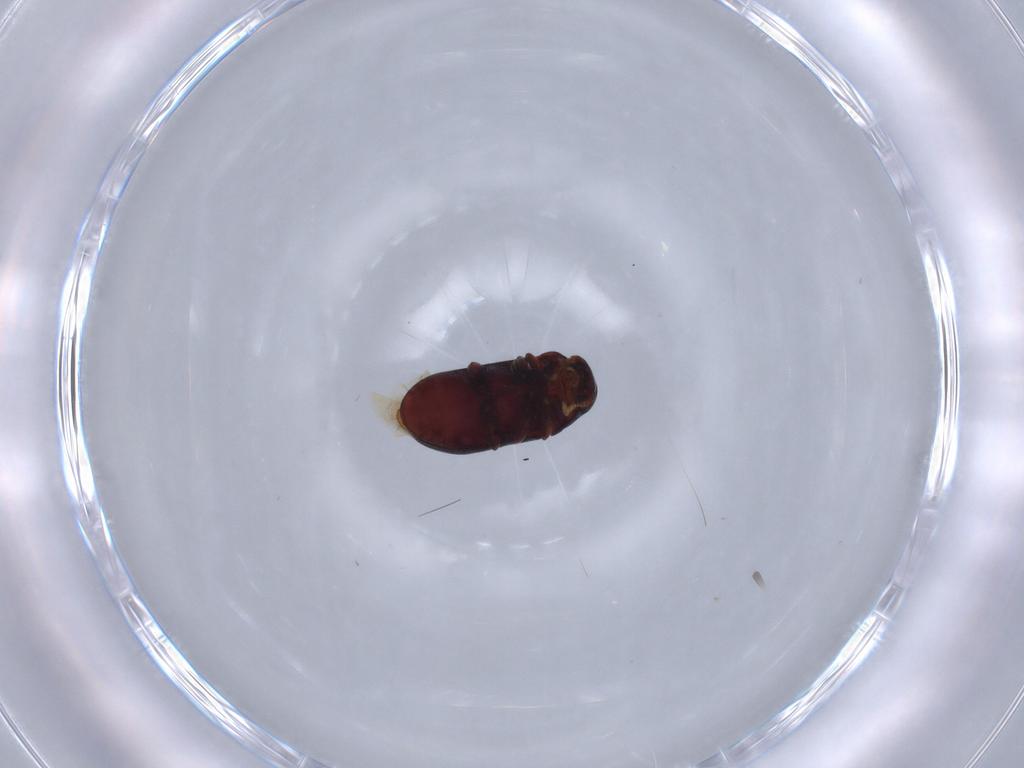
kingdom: Animalia
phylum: Arthropoda
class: Insecta
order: Coleoptera
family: Ptinidae
